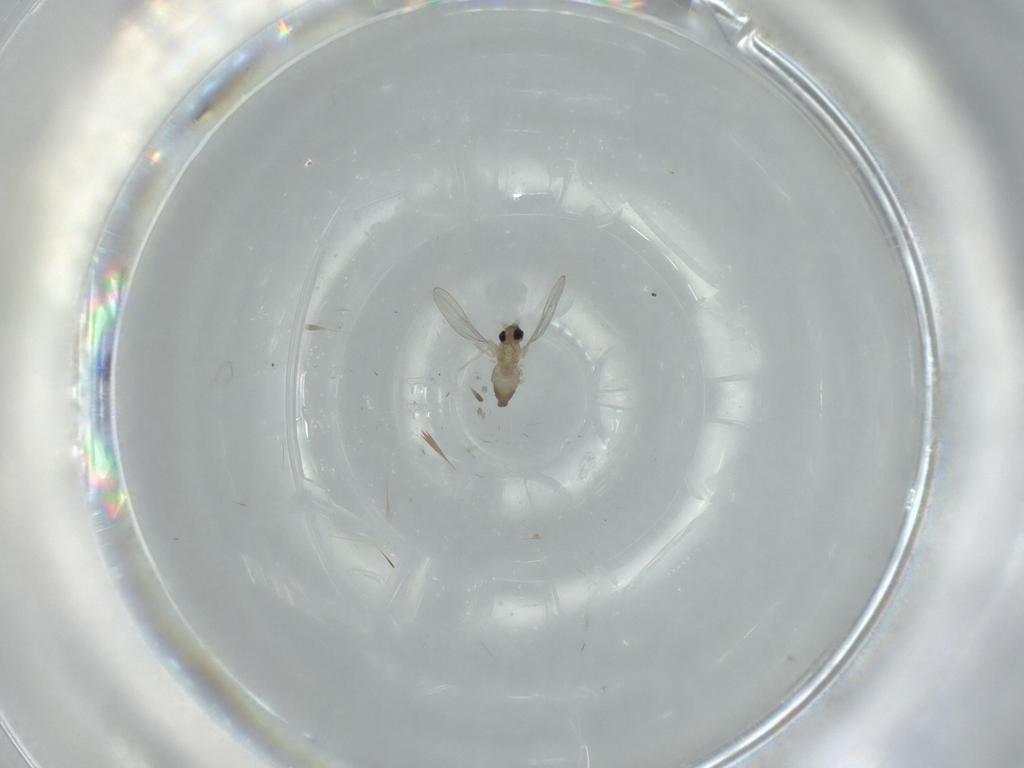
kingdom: Animalia
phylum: Arthropoda
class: Insecta
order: Diptera
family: Cecidomyiidae
